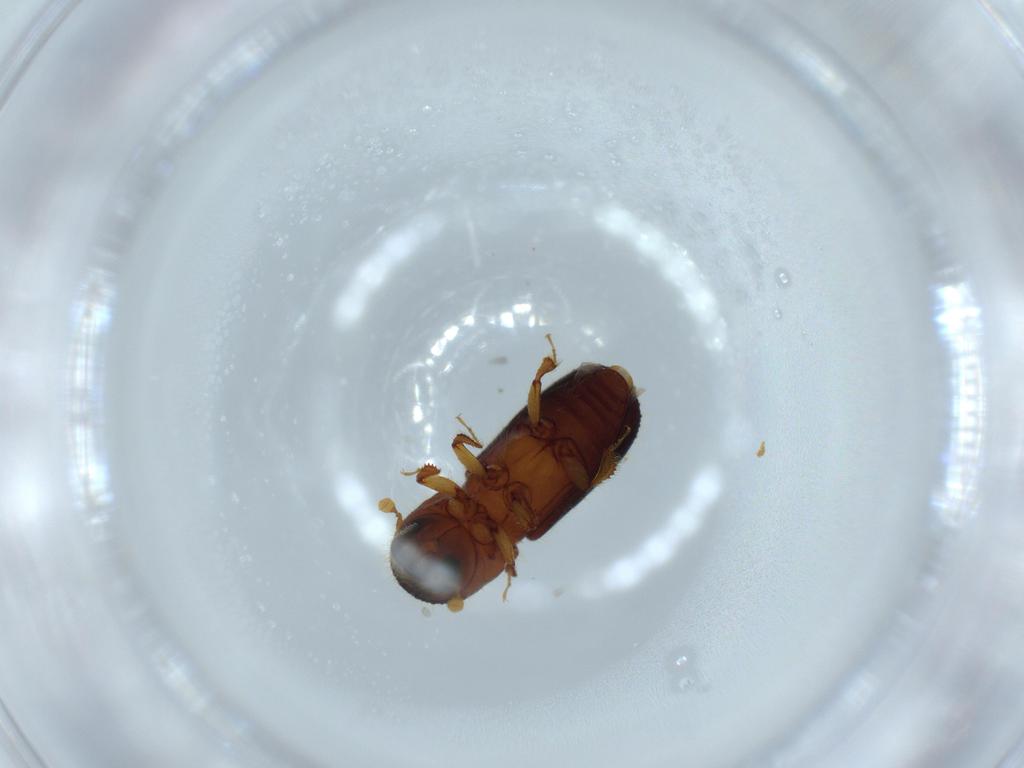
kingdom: Animalia
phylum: Arthropoda
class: Insecta
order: Coleoptera
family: Curculionidae
